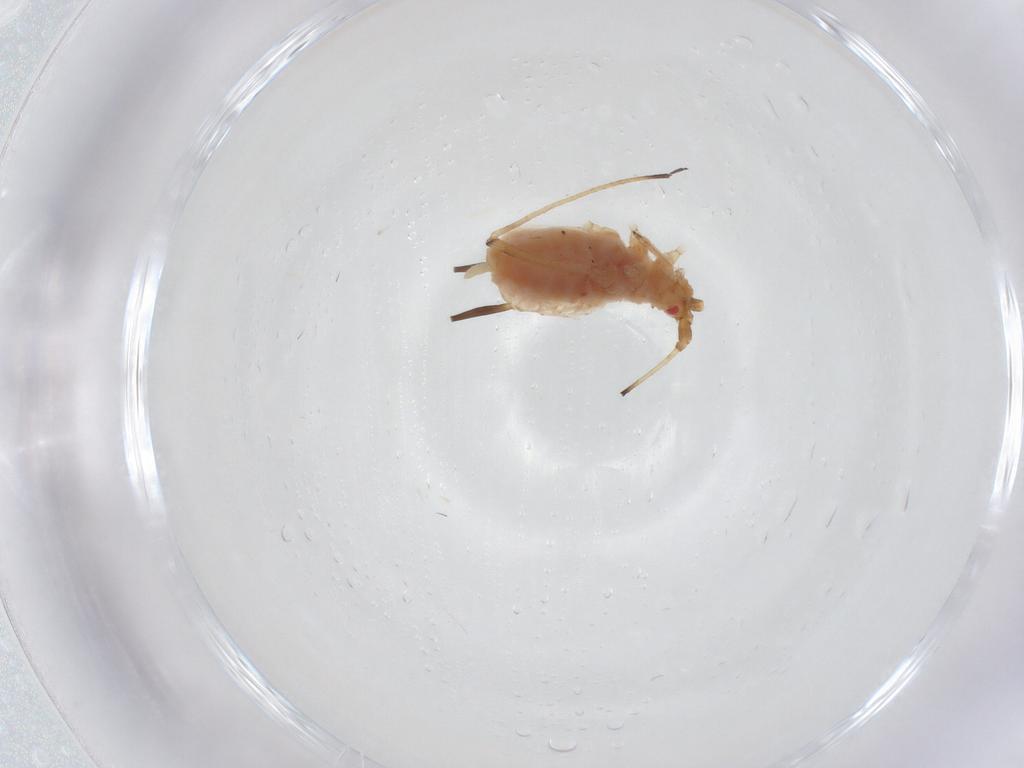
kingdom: Animalia
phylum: Arthropoda
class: Insecta
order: Hemiptera
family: Aphididae
